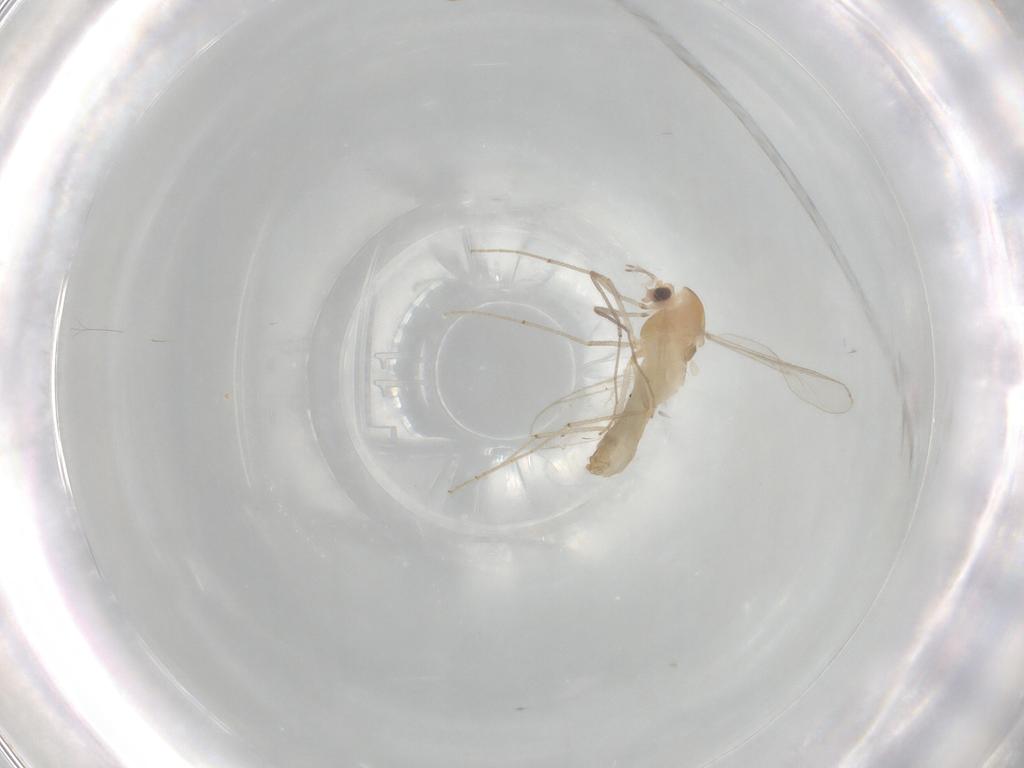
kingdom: Animalia
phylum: Arthropoda
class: Insecta
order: Diptera
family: Chironomidae
